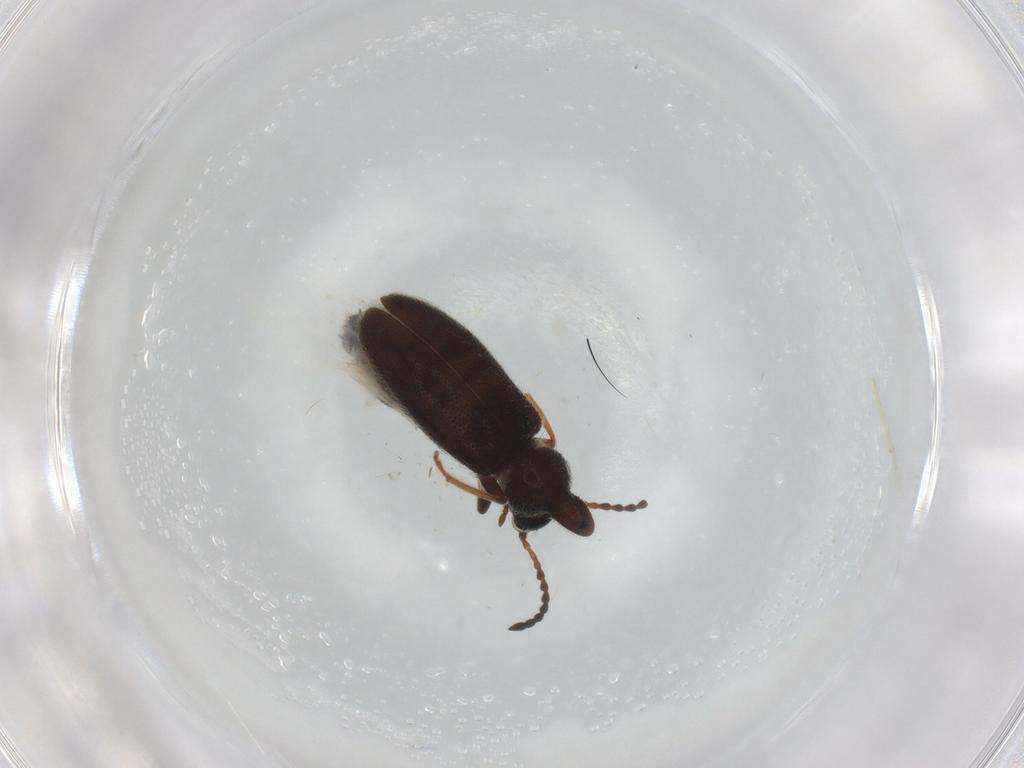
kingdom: Animalia
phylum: Arthropoda
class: Insecta
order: Coleoptera
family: Anthicidae
